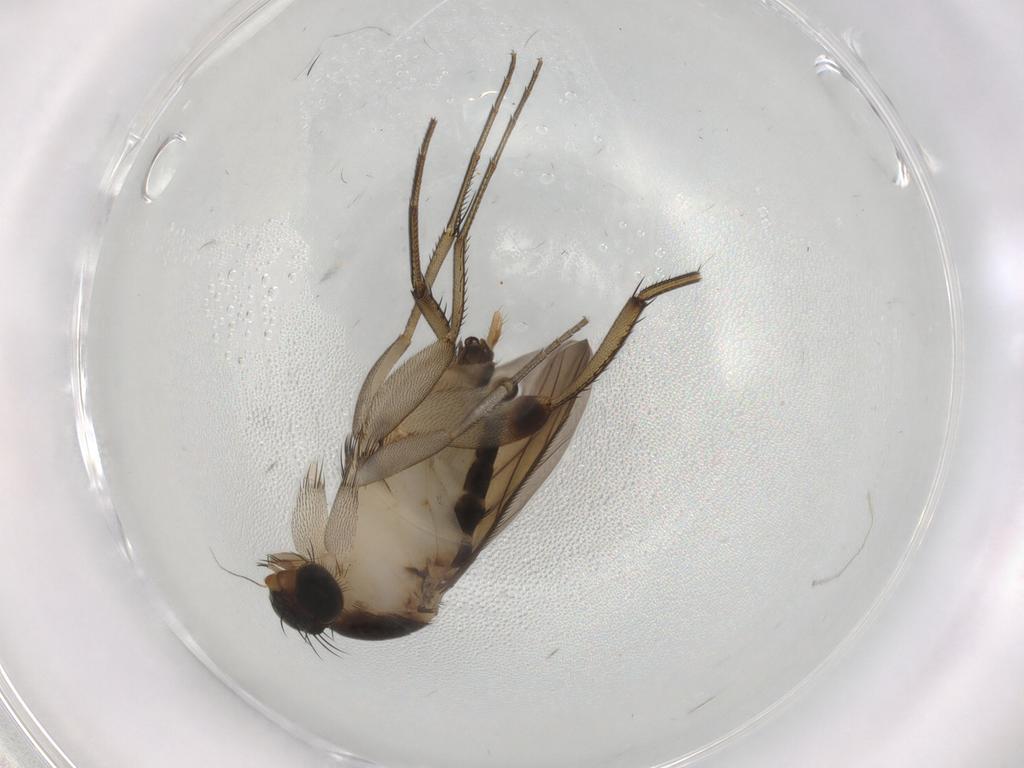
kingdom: Animalia
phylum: Arthropoda
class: Insecta
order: Diptera
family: Phoridae
